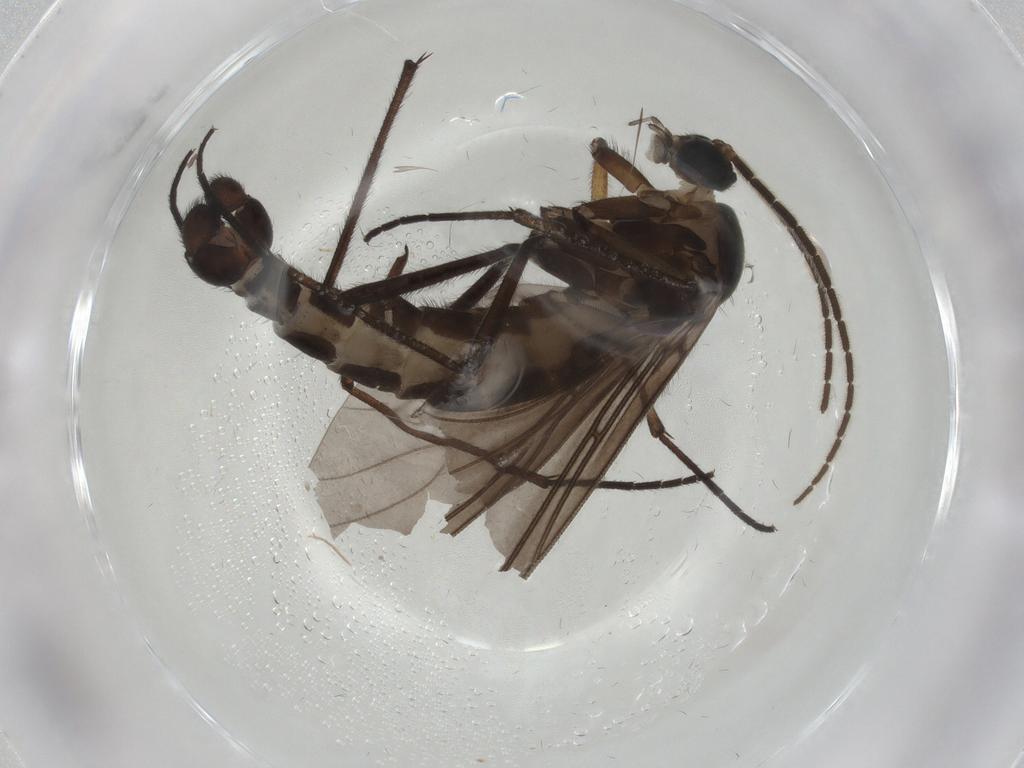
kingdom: Animalia
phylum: Arthropoda
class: Insecta
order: Diptera
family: Sciaridae
